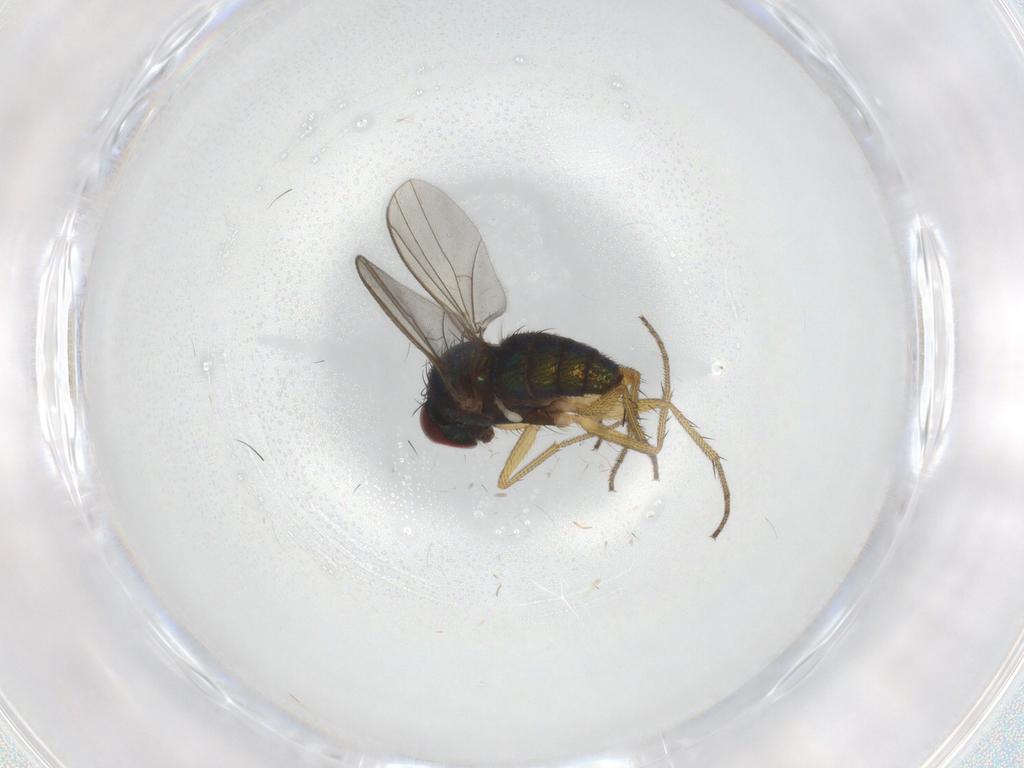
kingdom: Animalia
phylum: Arthropoda
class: Insecta
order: Diptera
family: Dolichopodidae
